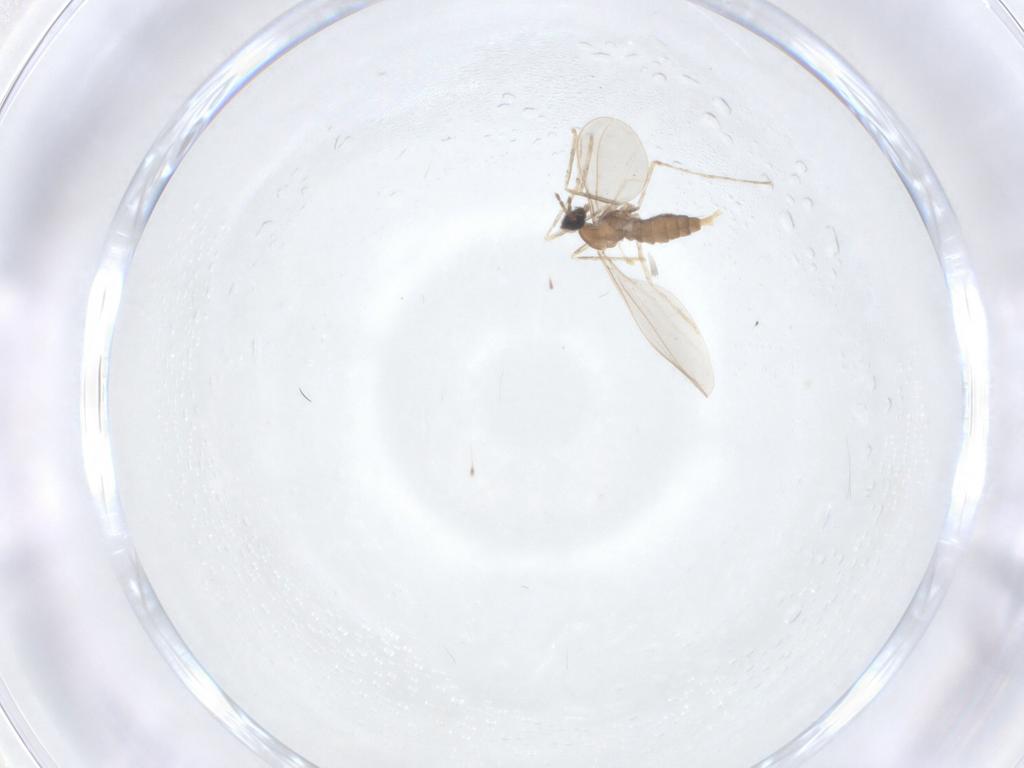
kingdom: Animalia
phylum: Arthropoda
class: Insecta
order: Diptera
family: Cecidomyiidae
